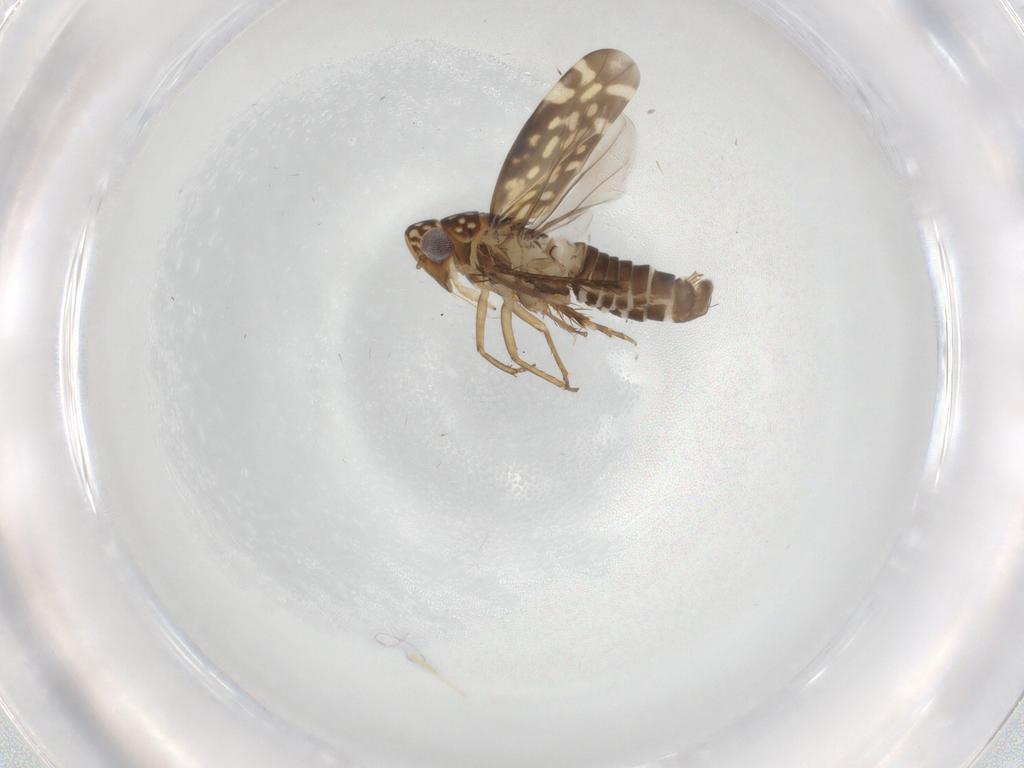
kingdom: Animalia
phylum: Arthropoda
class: Insecta
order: Hemiptera
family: Cicadellidae
